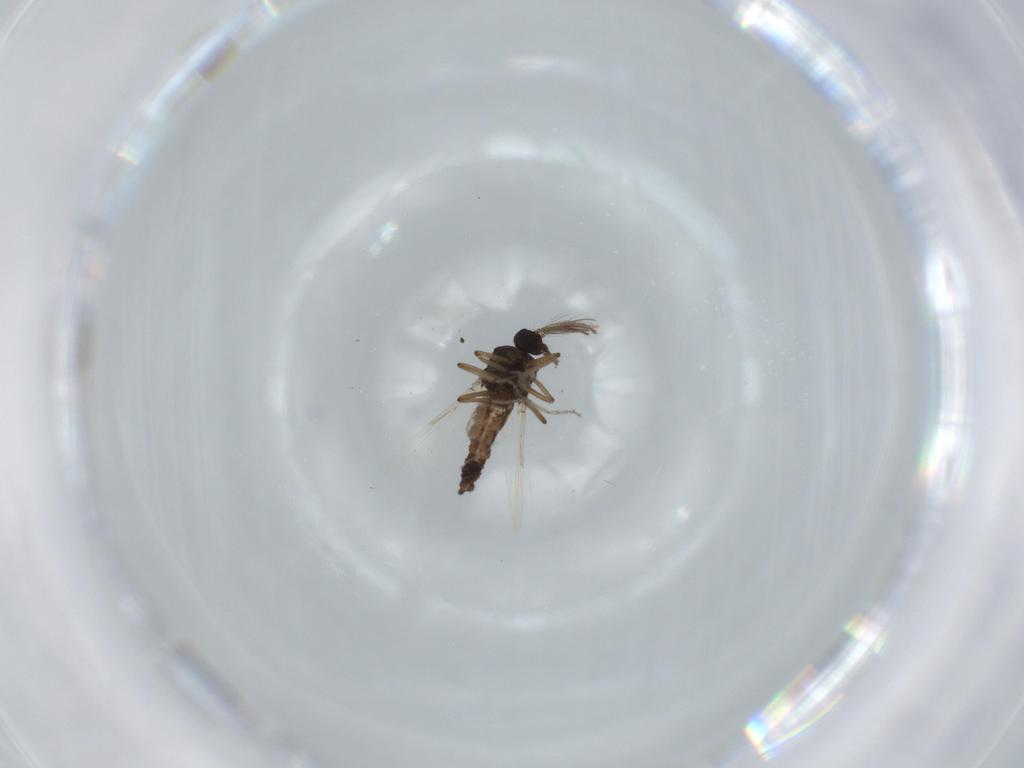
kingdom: Animalia
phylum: Arthropoda
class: Insecta
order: Diptera
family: Ceratopogonidae
